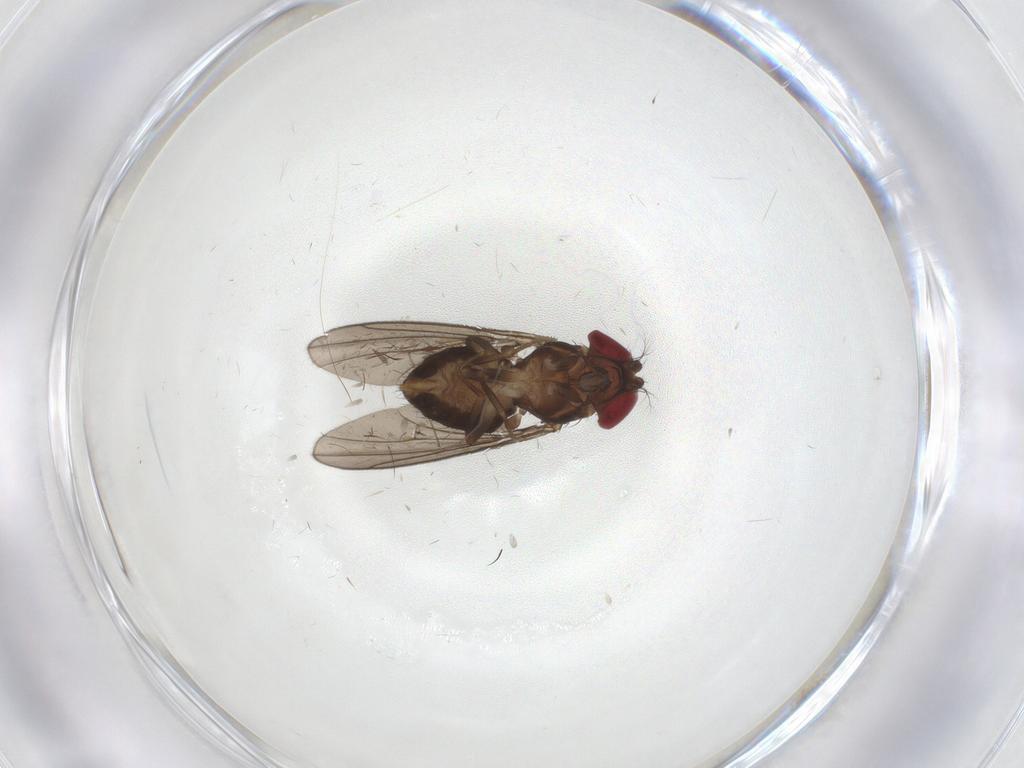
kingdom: Animalia
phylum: Arthropoda
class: Insecta
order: Diptera
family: Drosophilidae
